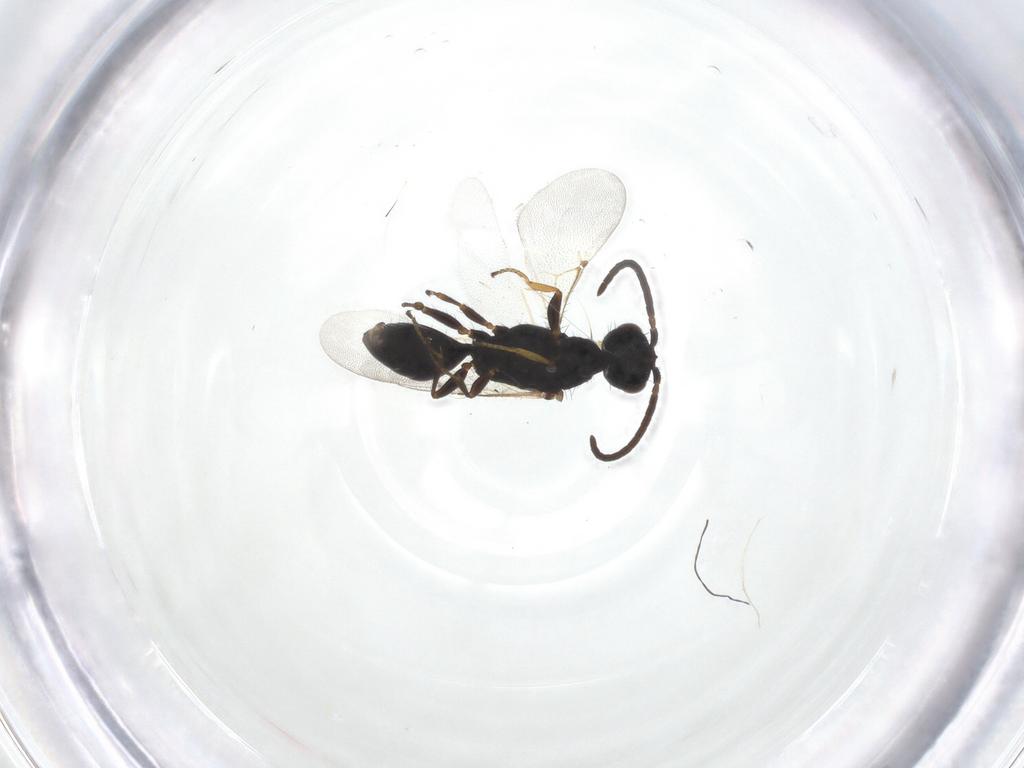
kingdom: Animalia
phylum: Arthropoda
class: Insecta
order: Hymenoptera
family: Bethylidae
